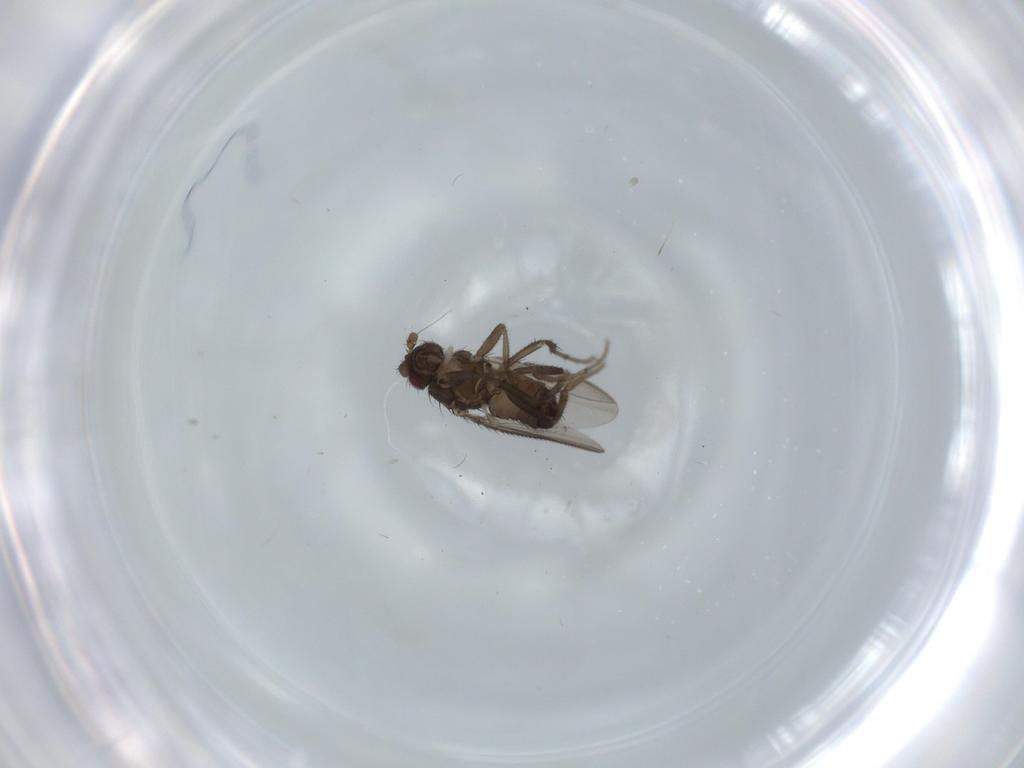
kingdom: Animalia
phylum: Arthropoda
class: Insecta
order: Diptera
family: Sphaeroceridae
